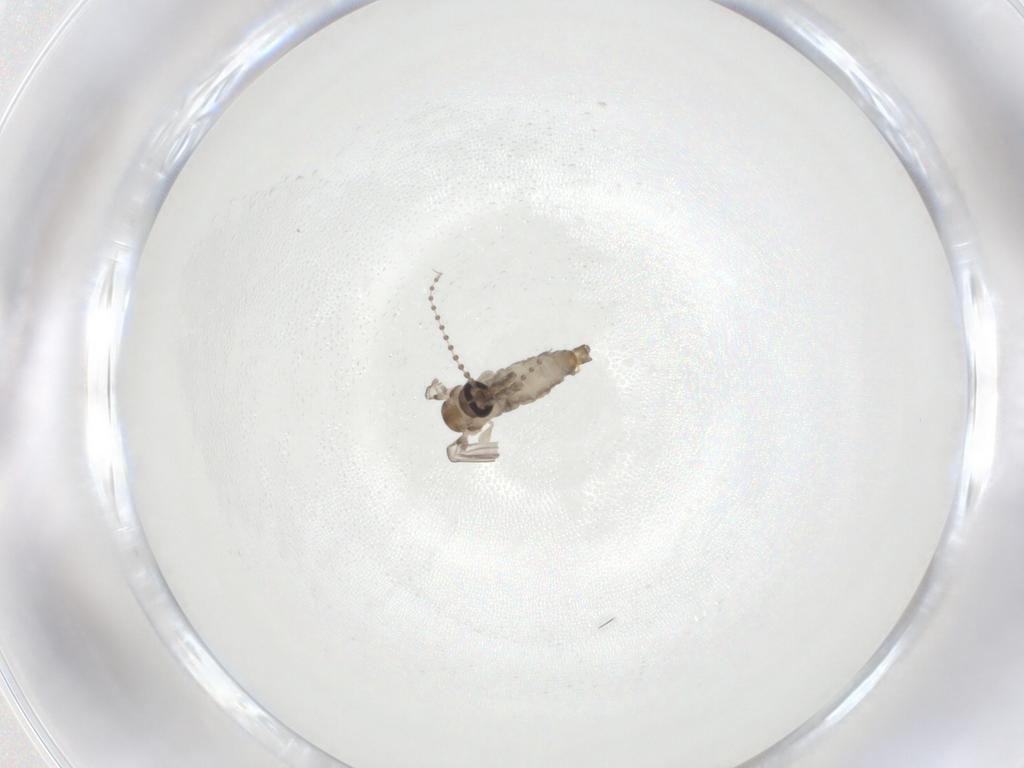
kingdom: Animalia
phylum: Arthropoda
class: Insecta
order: Diptera
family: Psychodidae
